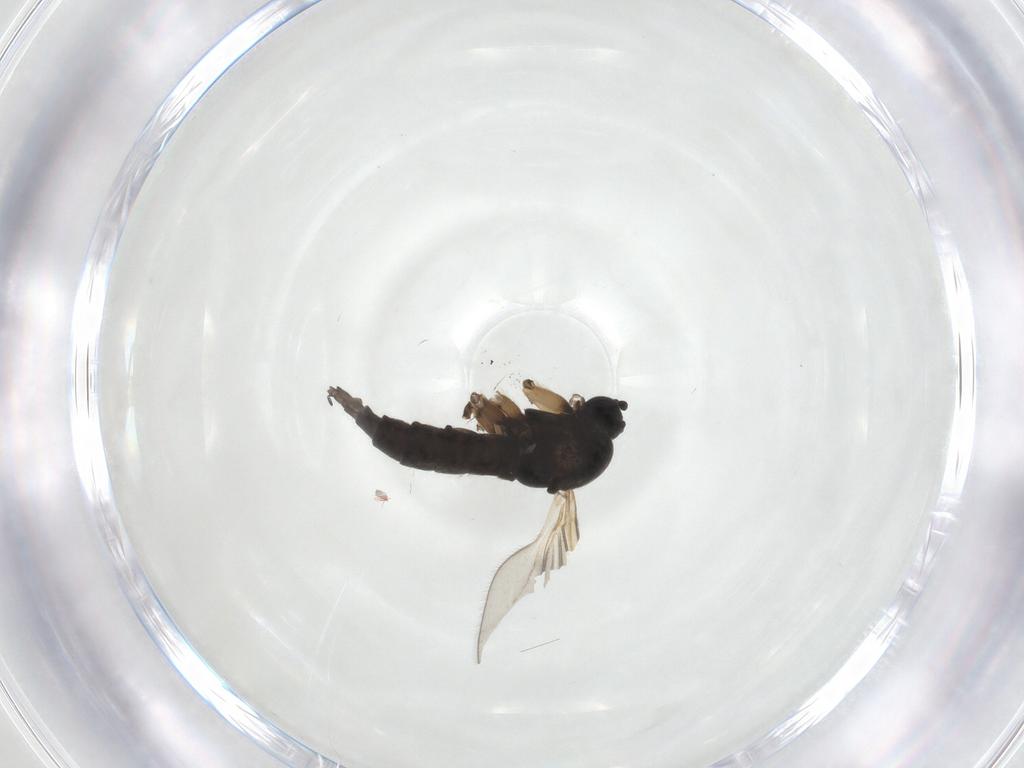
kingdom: Animalia
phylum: Arthropoda
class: Insecta
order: Diptera
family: Sciaridae
